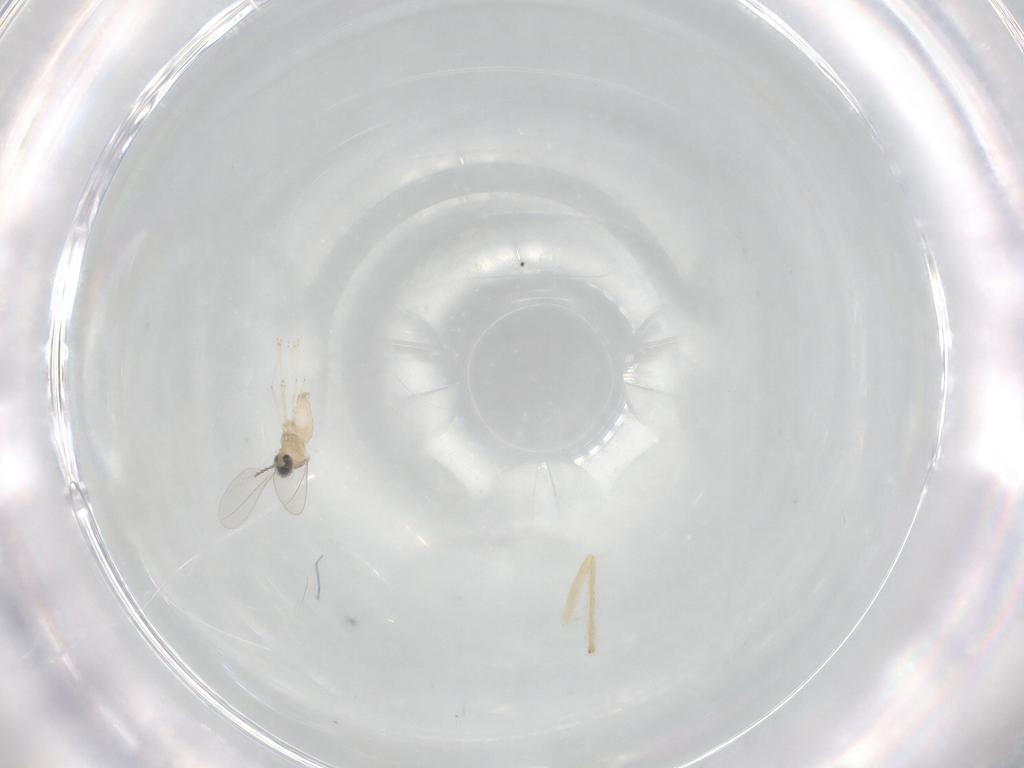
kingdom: Animalia
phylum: Arthropoda
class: Insecta
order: Diptera
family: Cecidomyiidae
